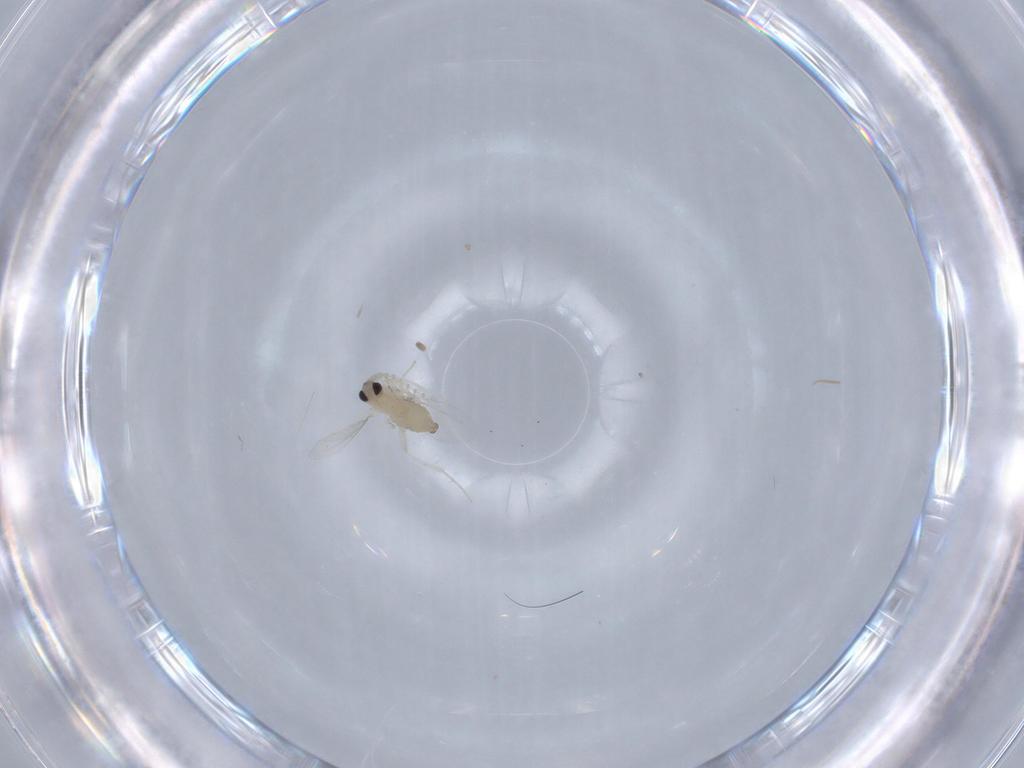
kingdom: Animalia
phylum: Arthropoda
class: Insecta
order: Diptera
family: Cecidomyiidae
